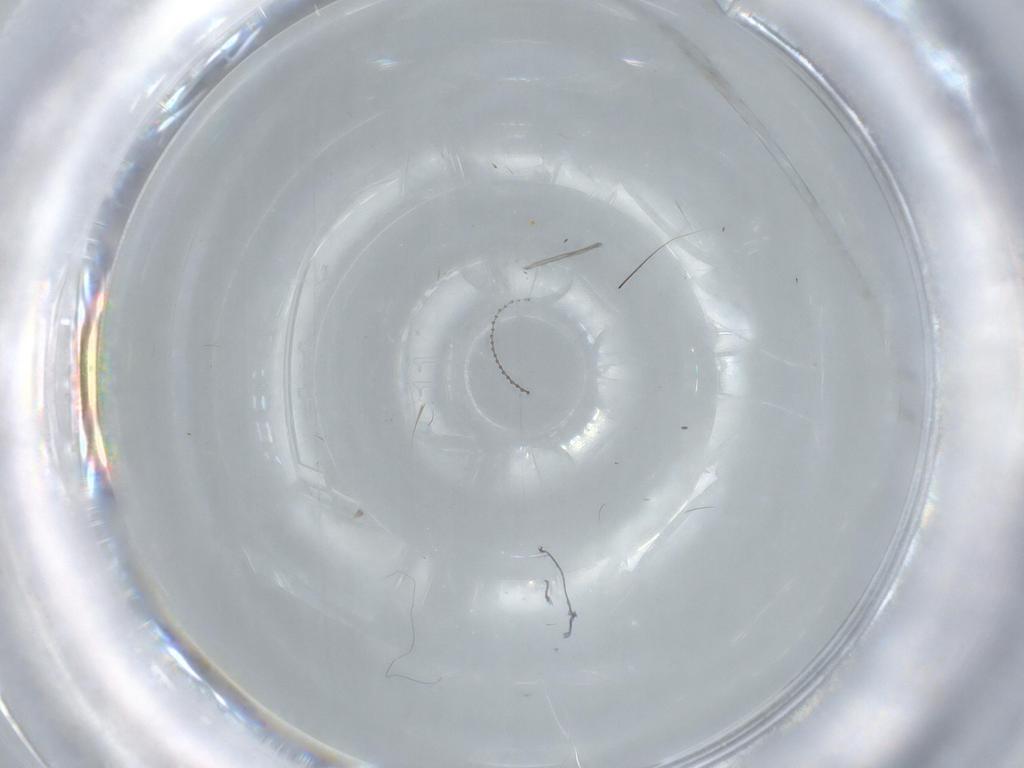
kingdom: Animalia
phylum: Arthropoda
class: Insecta
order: Diptera
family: Cecidomyiidae
